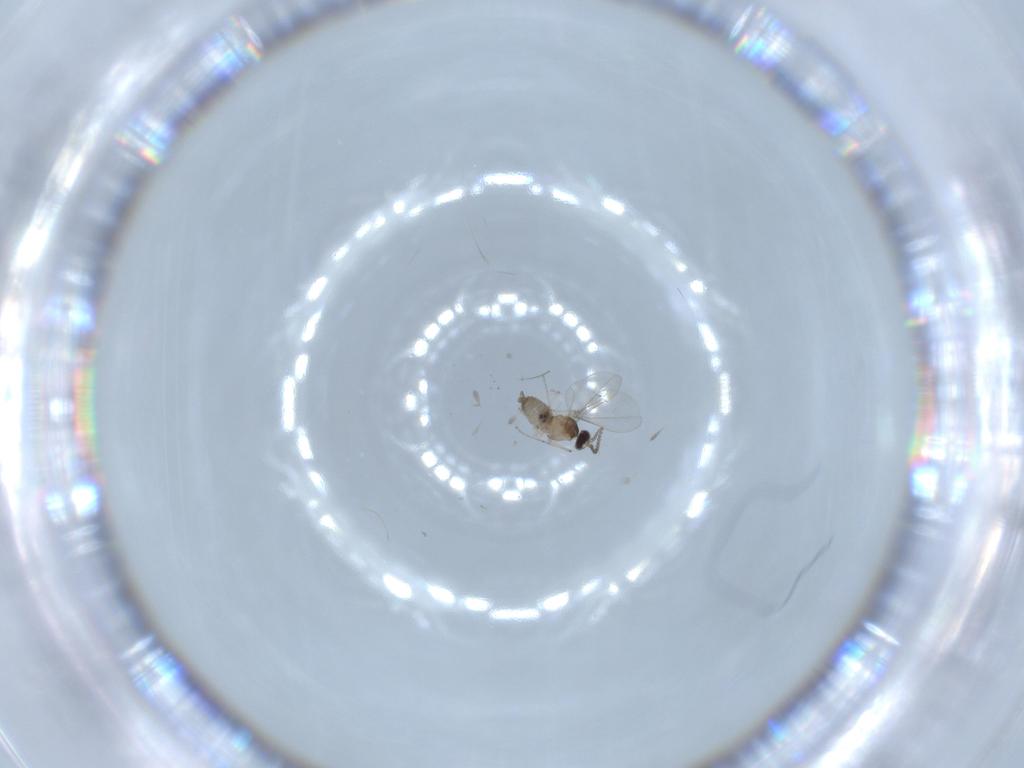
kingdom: Animalia
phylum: Arthropoda
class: Insecta
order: Diptera
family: Cecidomyiidae
